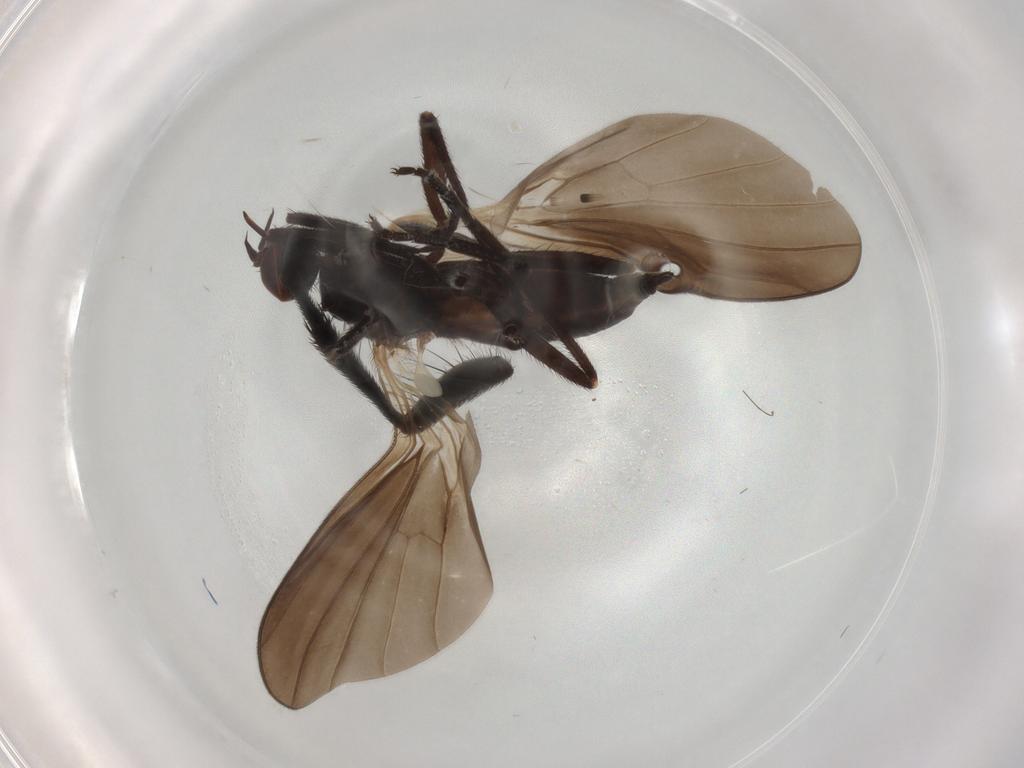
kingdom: Animalia
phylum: Arthropoda
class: Insecta
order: Diptera
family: Empididae
